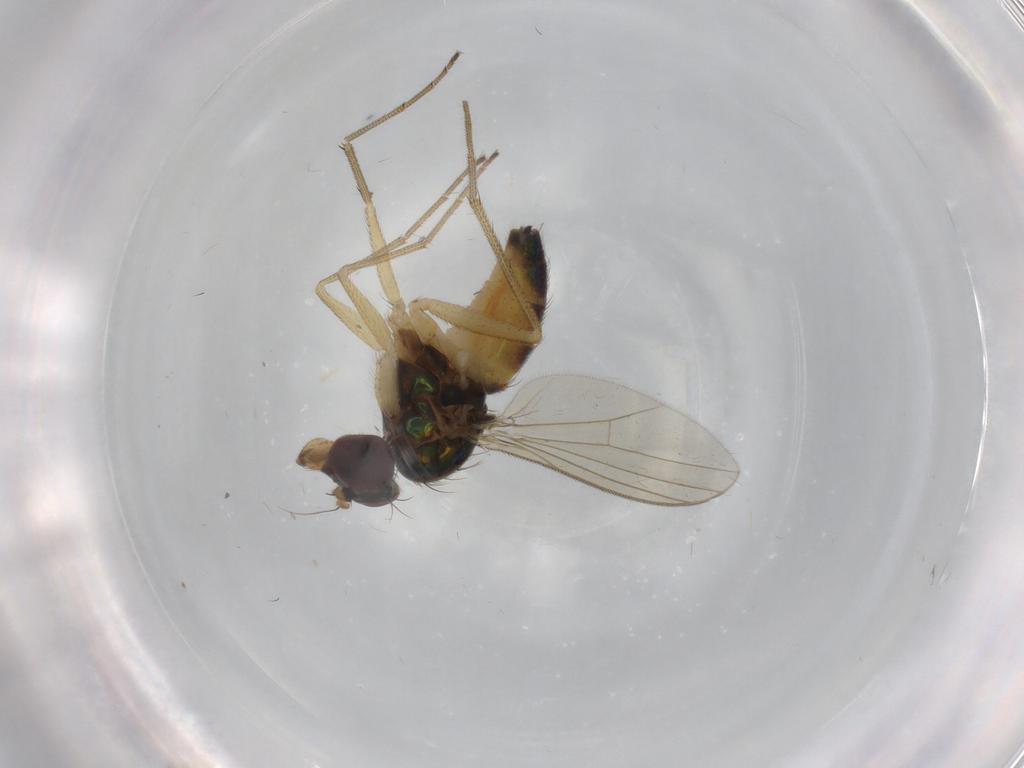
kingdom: Animalia
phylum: Arthropoda
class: Insecta
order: Diptera
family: Dolichopodidae
